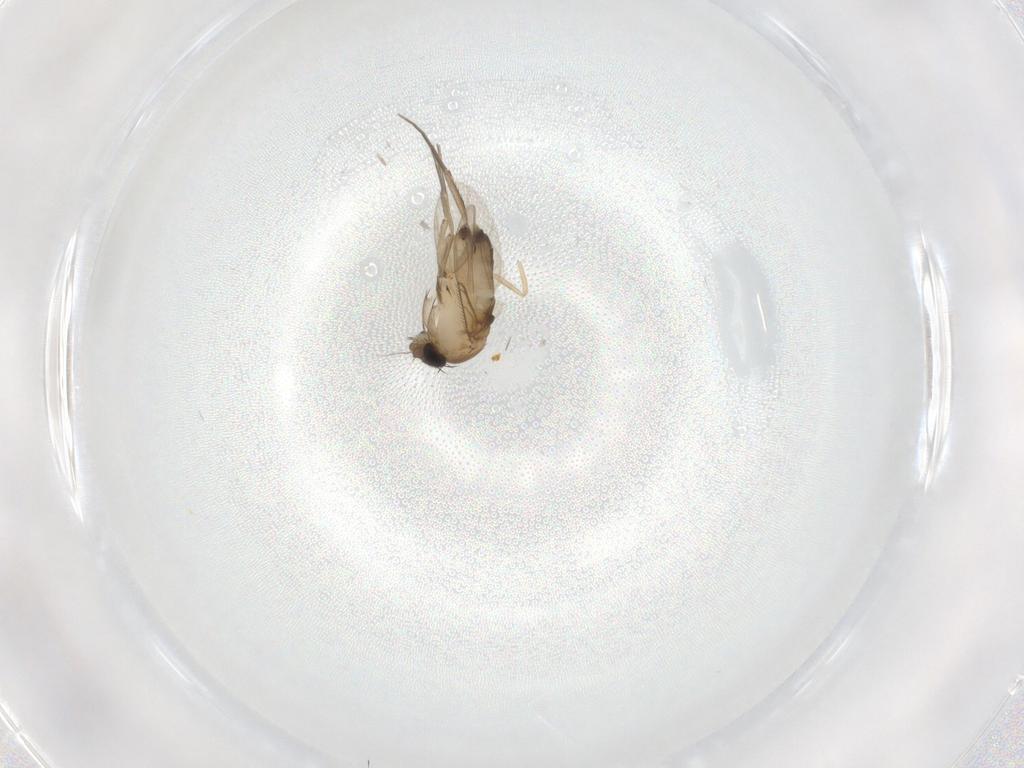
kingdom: Animalia
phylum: Arthropoda
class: Insecta
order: Diptera
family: Phoridae
